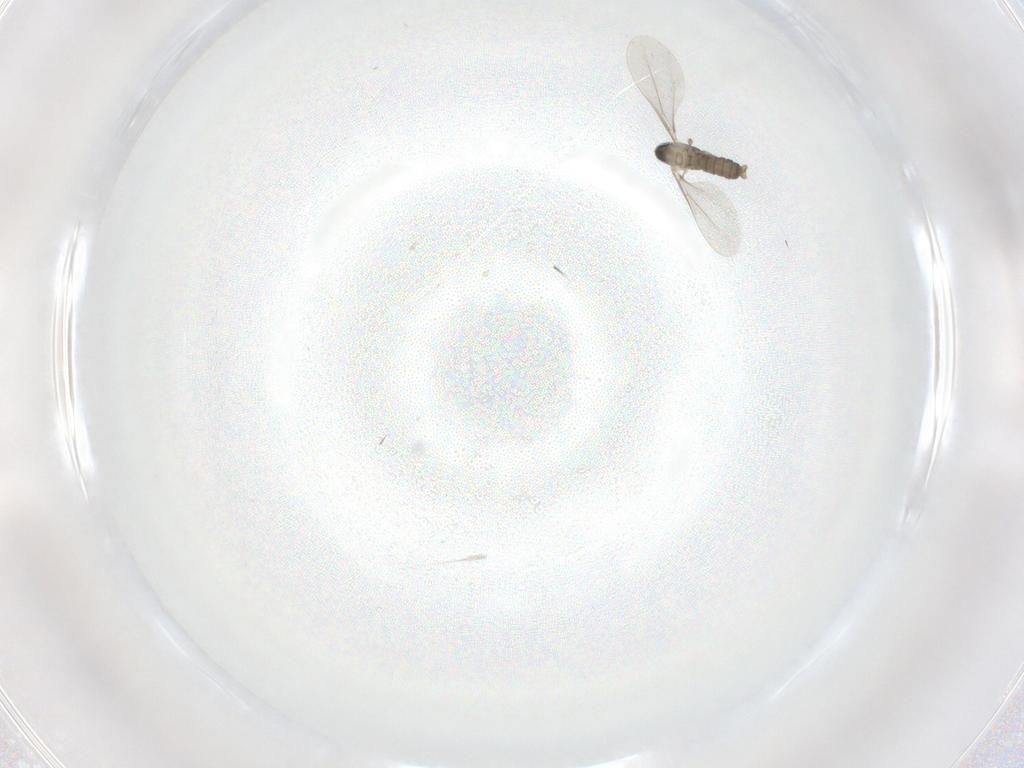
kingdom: Animalia
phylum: Arthropoda
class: Insecta
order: Diptera
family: Cecidomyiidae
